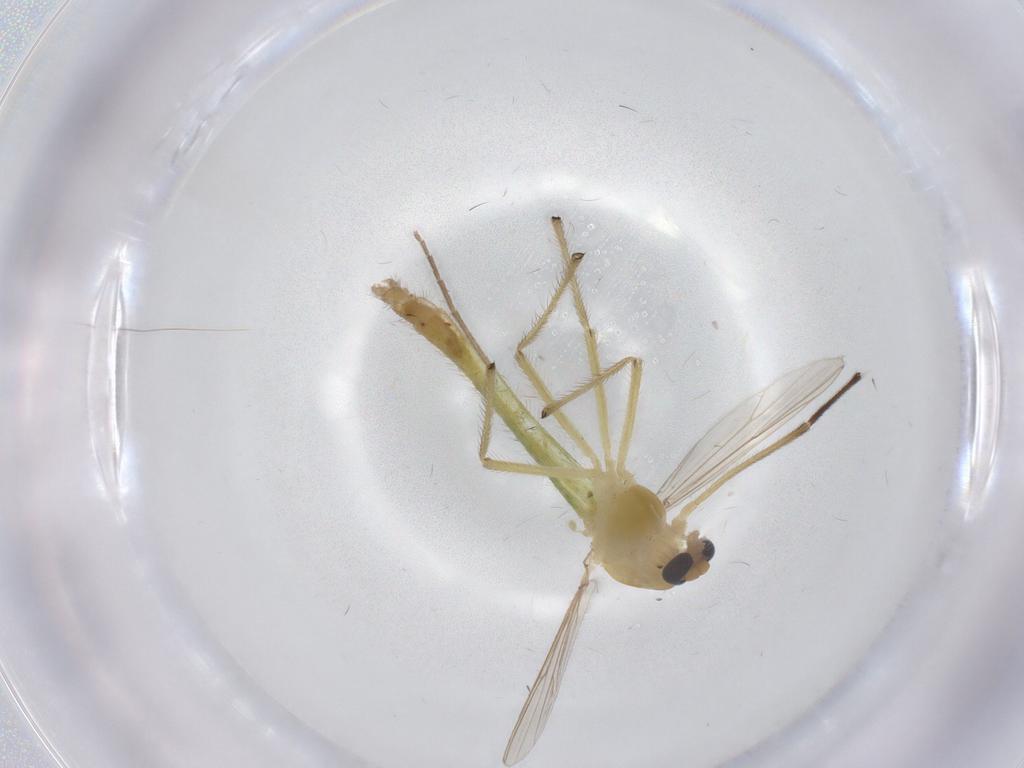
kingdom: Animalia
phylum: Arthropoda
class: Insecta
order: Diptera
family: Chironomidae
